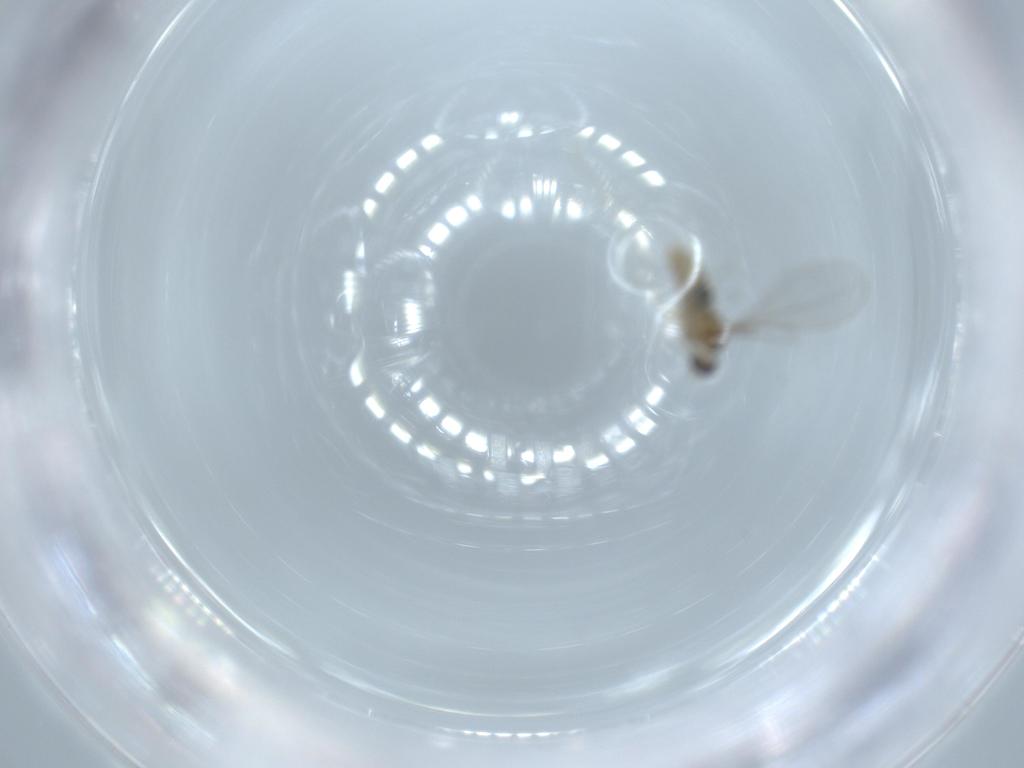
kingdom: Animalia
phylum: Arthropoda
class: Insecta
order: Diptera
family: Cecidomyiidae
